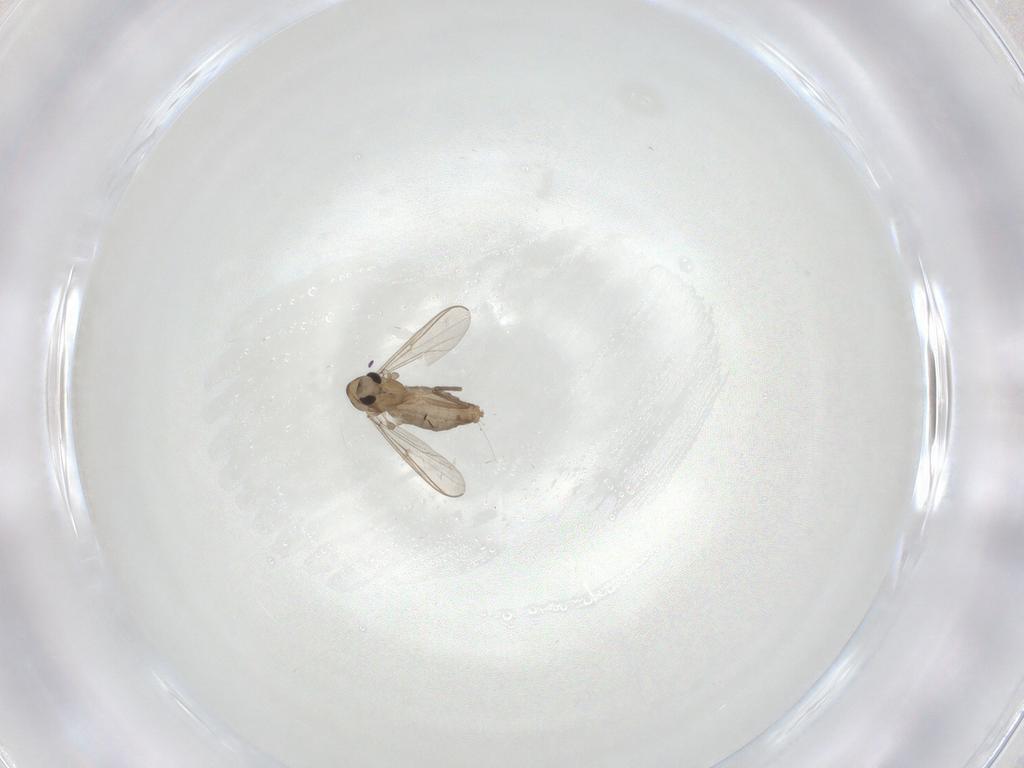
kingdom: Animalia
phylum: Arthropoda
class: Insecta
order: Diptera
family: Chironomidae
